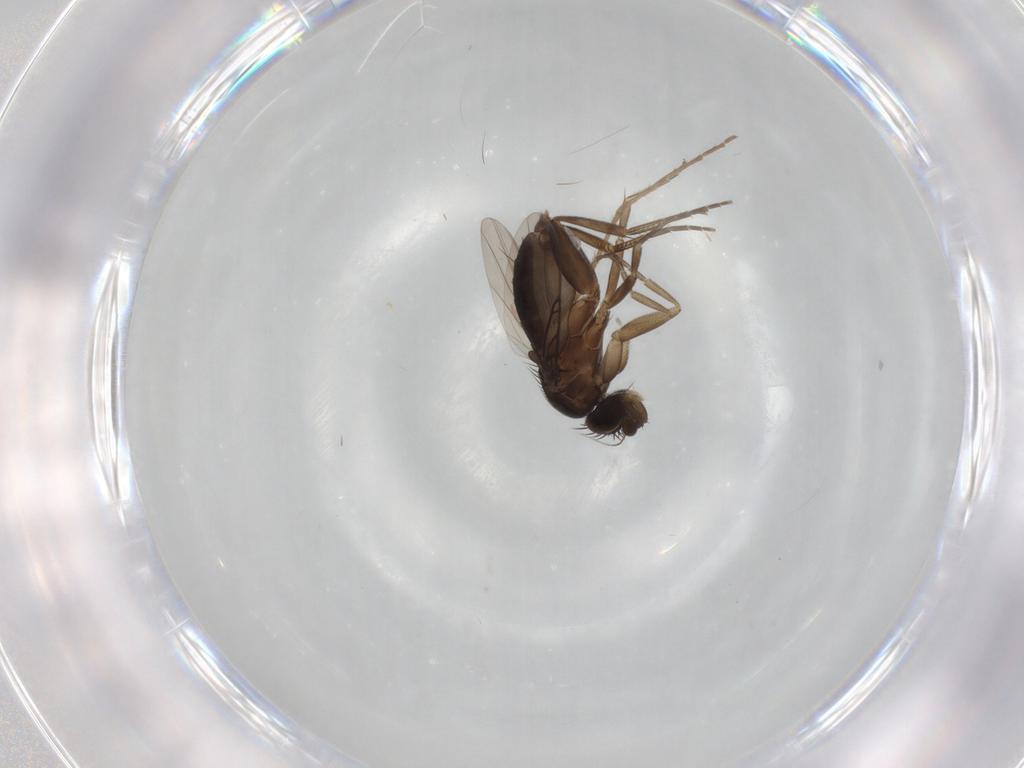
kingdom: Animalia
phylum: Arthropoda
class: Insecta
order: Diptera
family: Phoridae
